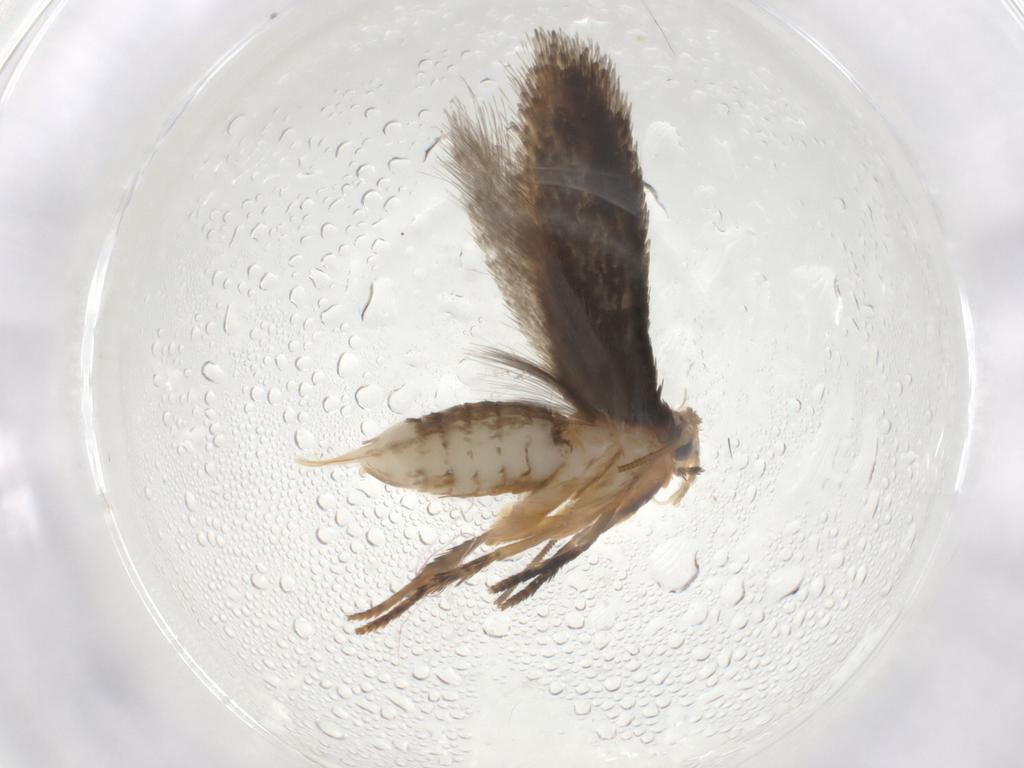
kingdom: Animalia
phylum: Arthropoda
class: Insecta
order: Lepidoptera
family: Nepticulidae
